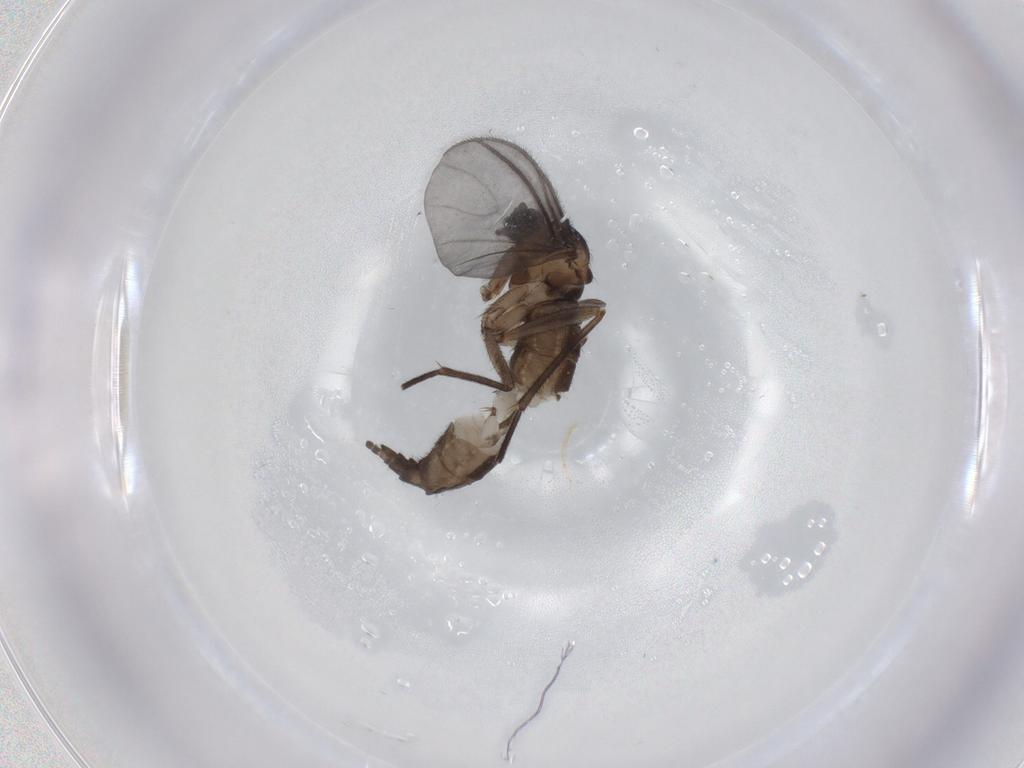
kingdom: Animalia
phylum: Arthropoda
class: Insecta
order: Diptera
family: Sciaridae
